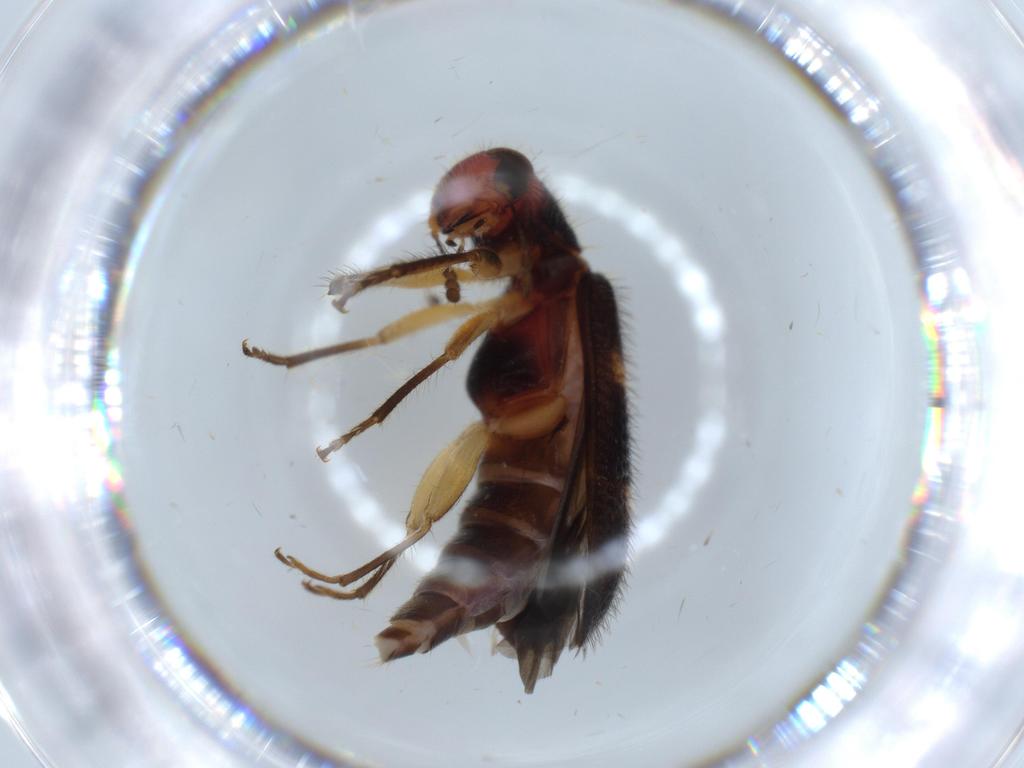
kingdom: Animalia
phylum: Arthropoda
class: Insecta
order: Coleoptera
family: Curculionidae
